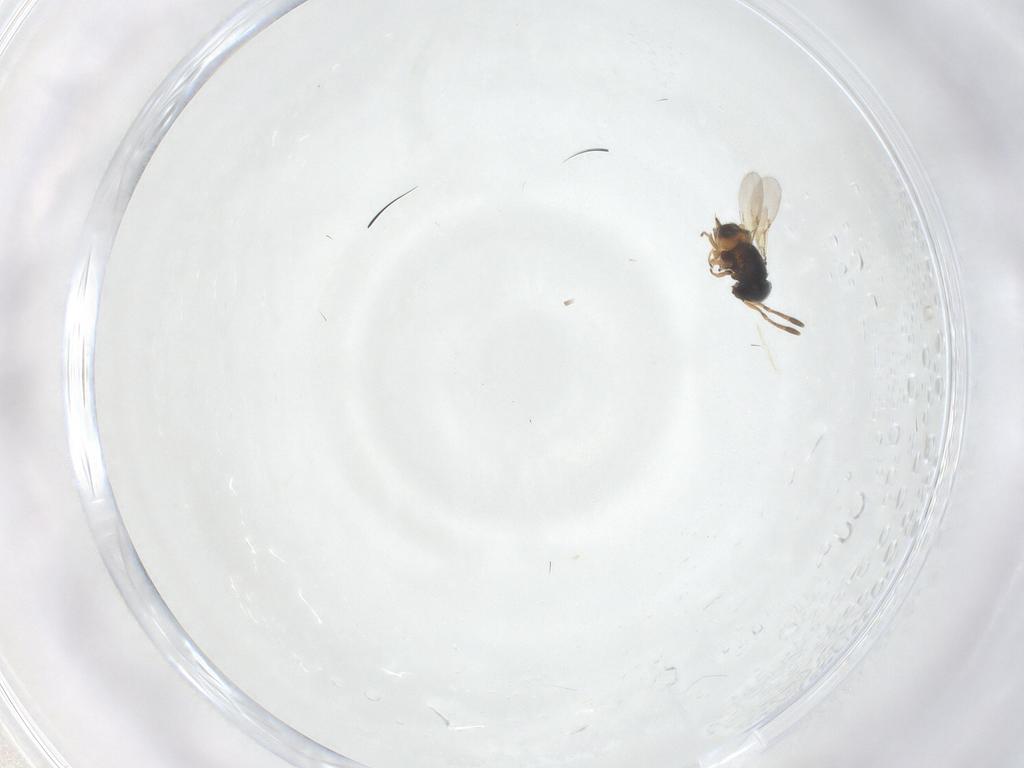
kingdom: Animalia
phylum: Arthropoda
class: Insecta
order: Hymenoptera
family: Encyrtidae
